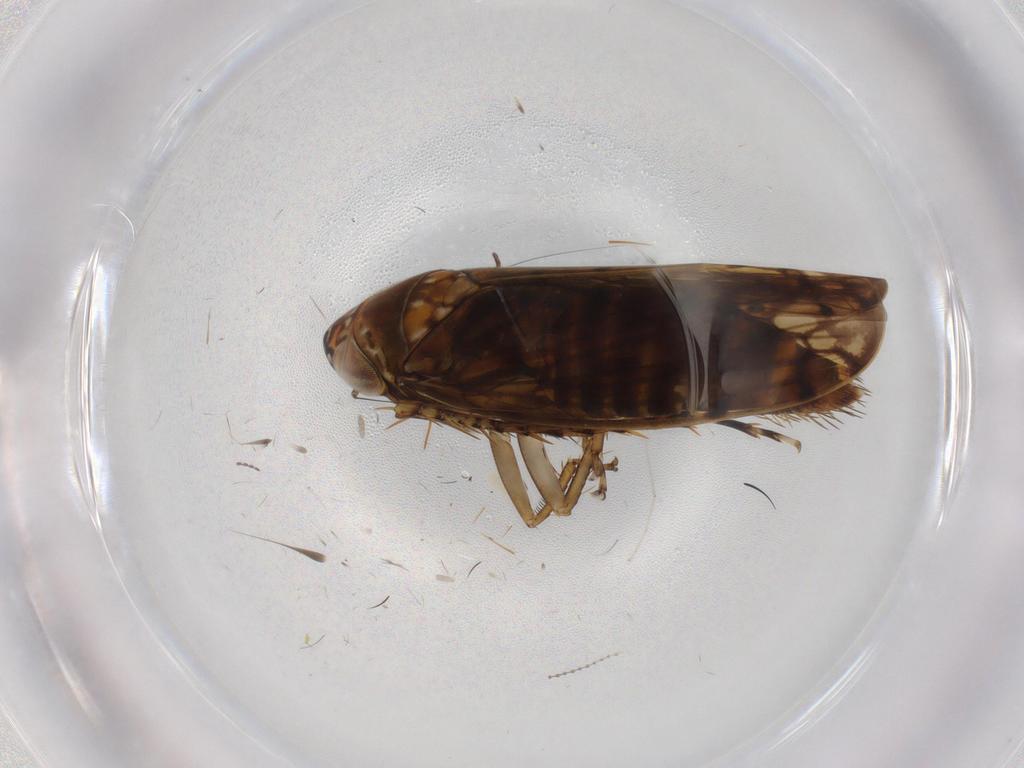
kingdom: Animalia
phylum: Arthropoda
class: Insecta
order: Hemiptera
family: Cicadellidae
